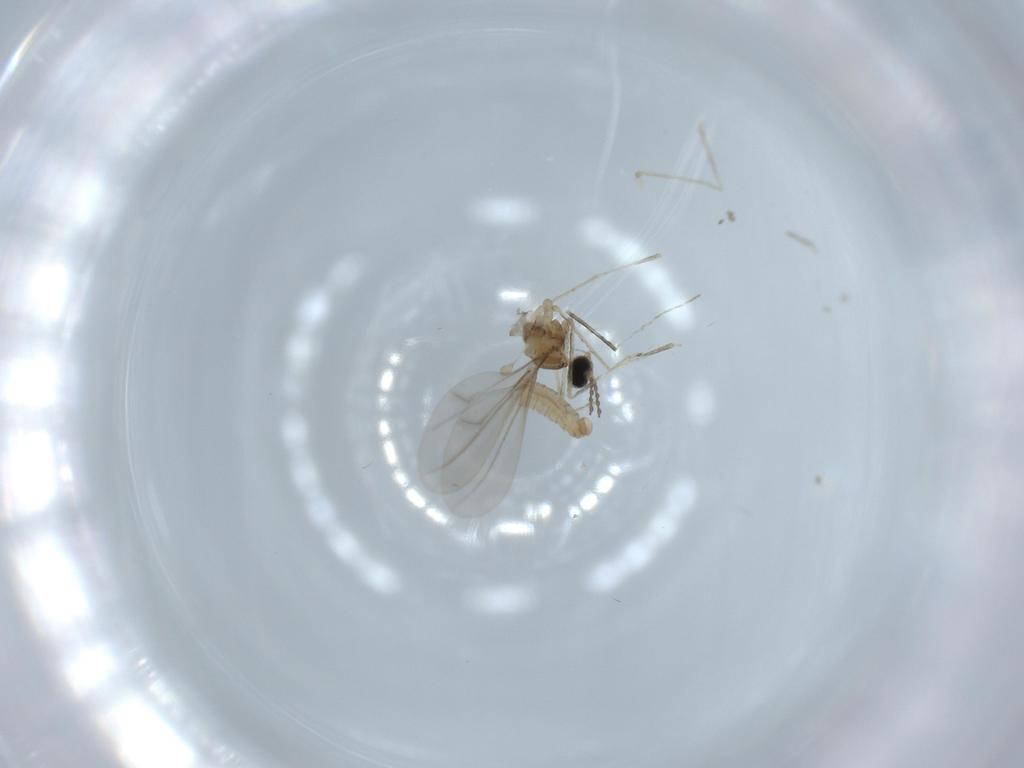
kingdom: Animalia
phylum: Arthropoda
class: Insecta
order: Diptera
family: Cecidomyiidae
